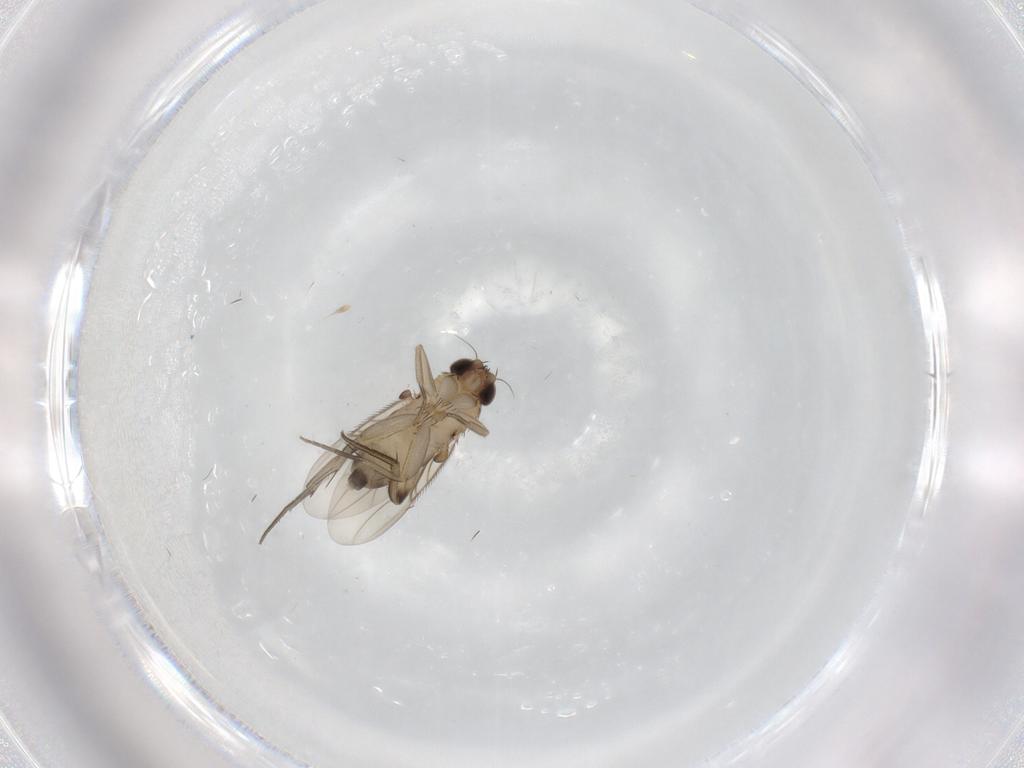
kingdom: Animalia
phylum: Arthropoda
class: Insecta
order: Diptera
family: Phoridae
